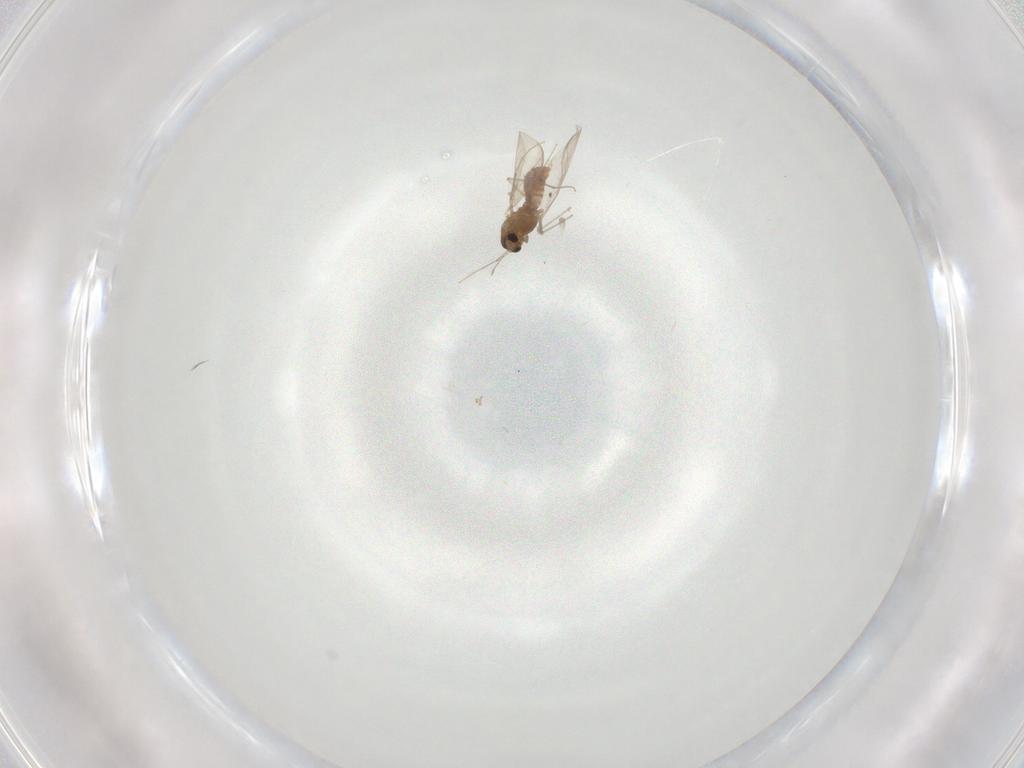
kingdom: Animalia
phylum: Arthropoda
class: Insecta
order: Diptera
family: Chironomidae
